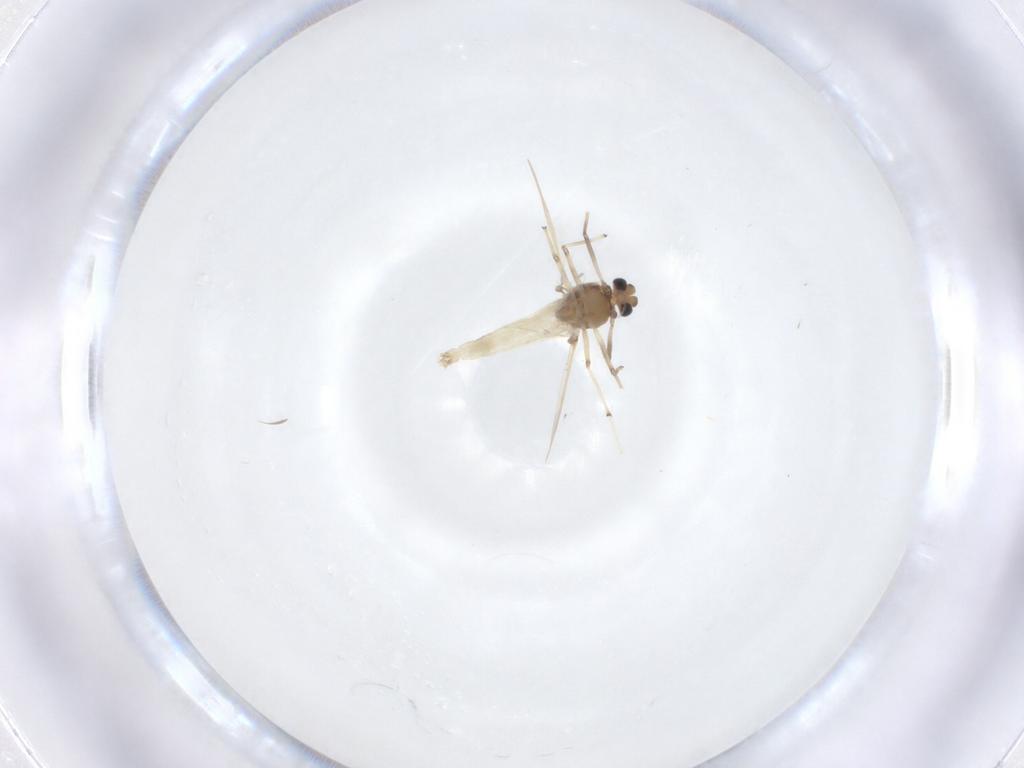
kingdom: Animalia
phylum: Arthropoda
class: Insecta
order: Diptera
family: Chironomidae
